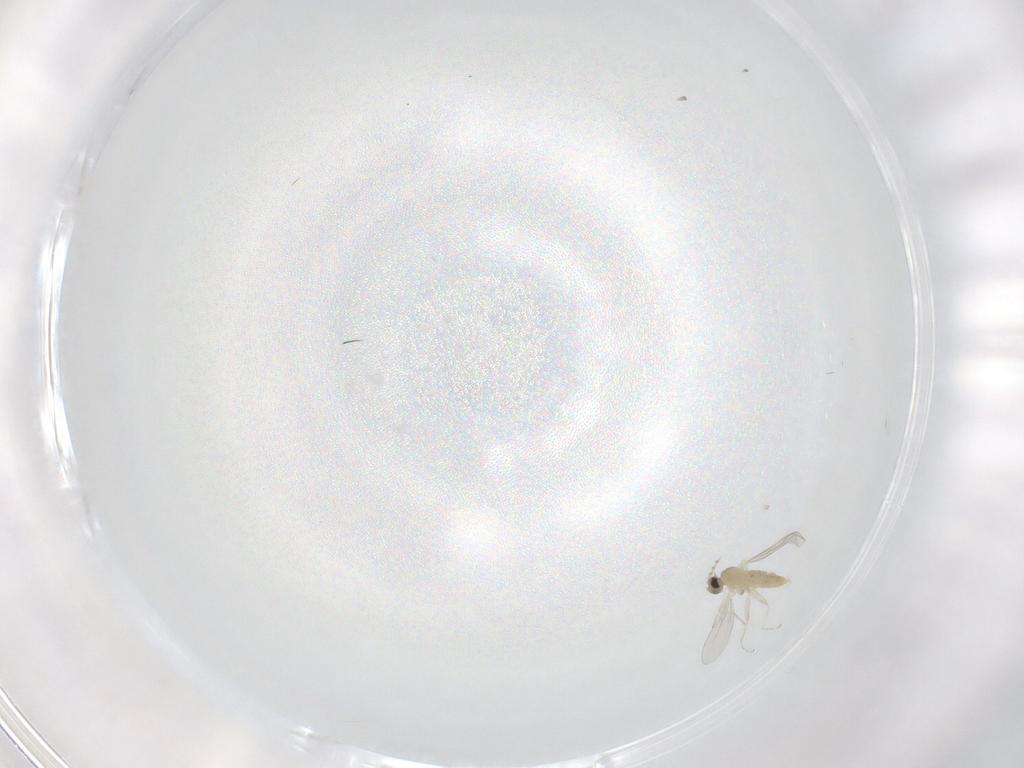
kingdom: Animalia
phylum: Arthropoda
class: Insecta
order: Diptera
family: Ceratopogonidae
